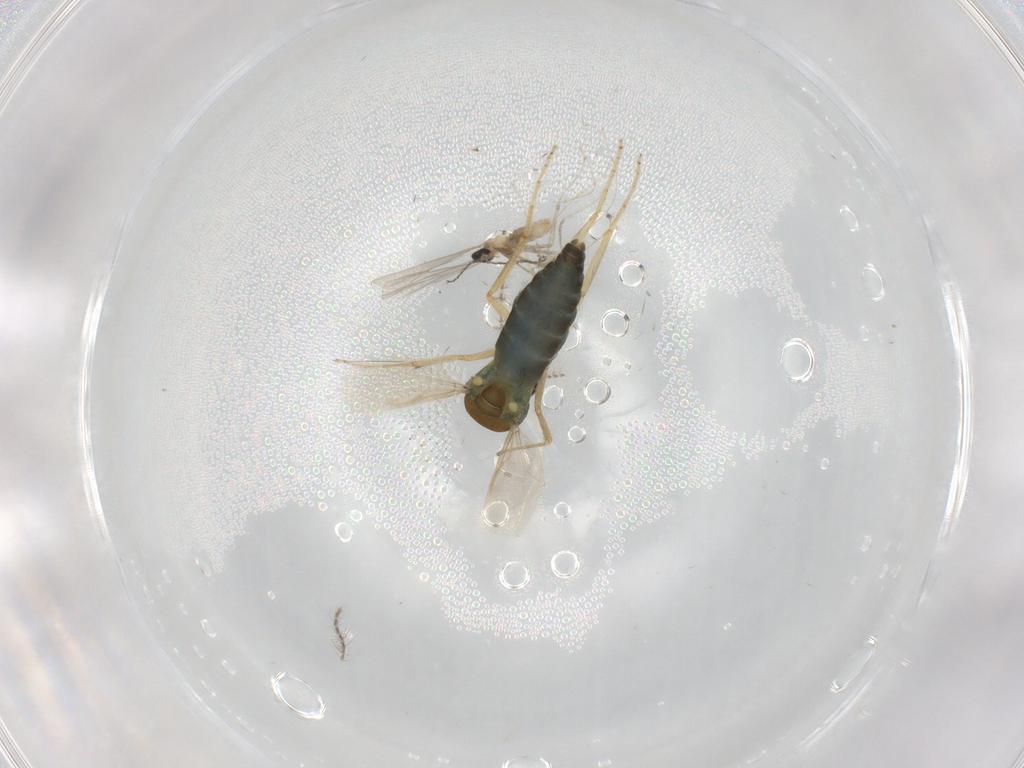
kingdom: Animalia
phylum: Arthropoda
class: Insecta
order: Diptera
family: Ceratopogonidae
